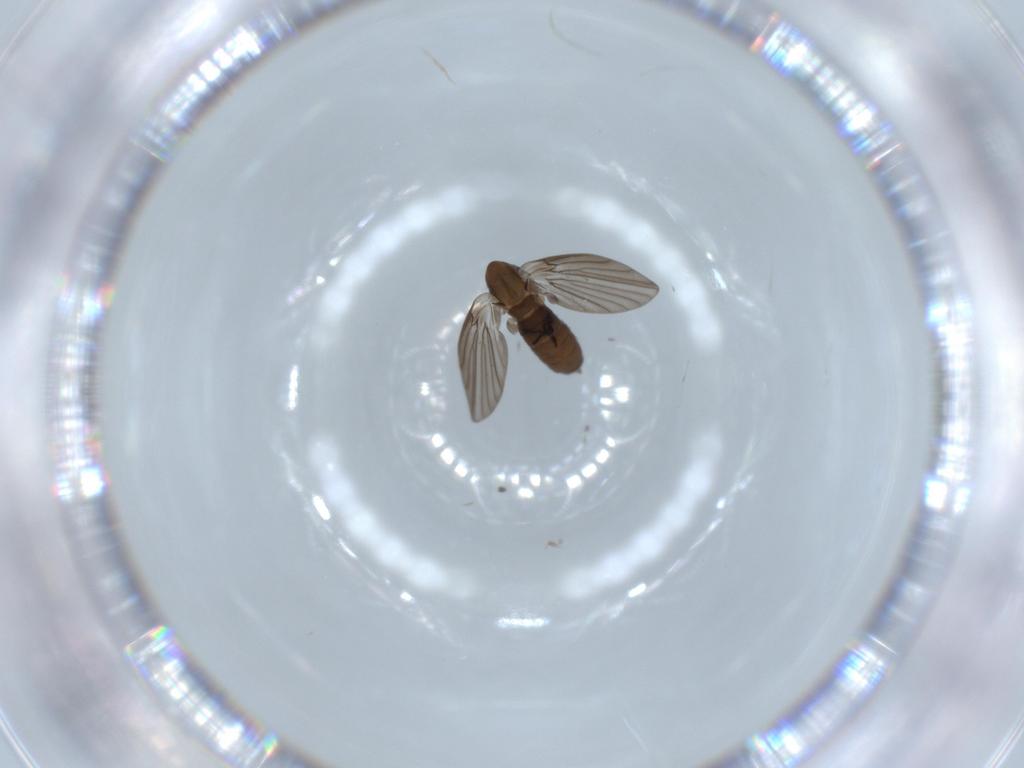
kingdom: Animalia
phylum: Arthropoda
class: Insecta
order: Diptera
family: Psychodidae
